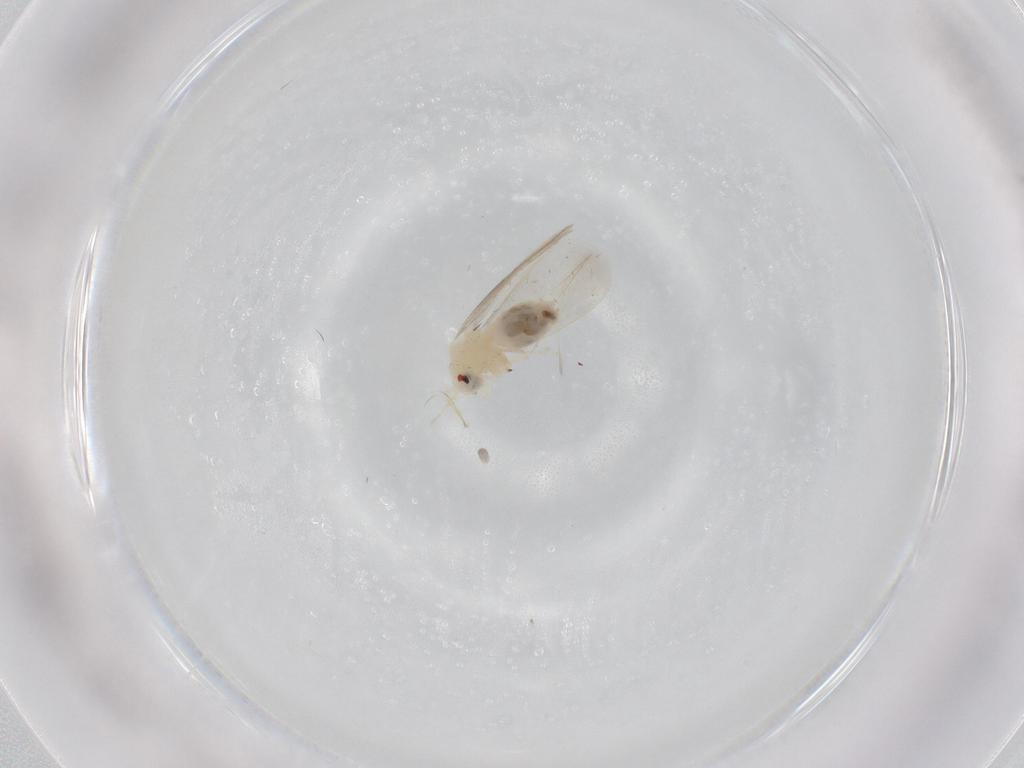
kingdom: Animalia
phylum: Arthropoda
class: Insecta
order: Hemiptera
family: Aleyrodidae
